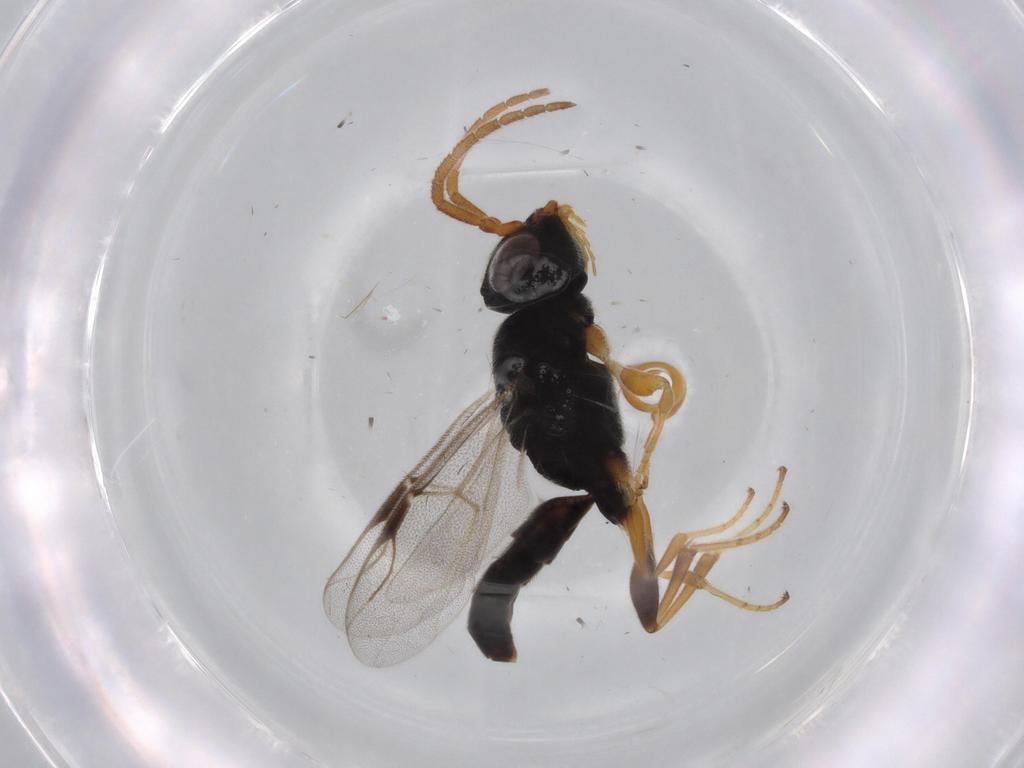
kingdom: Animalia
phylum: Arthropoda
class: Insecta
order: Hymenoptera
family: Dryinidae
